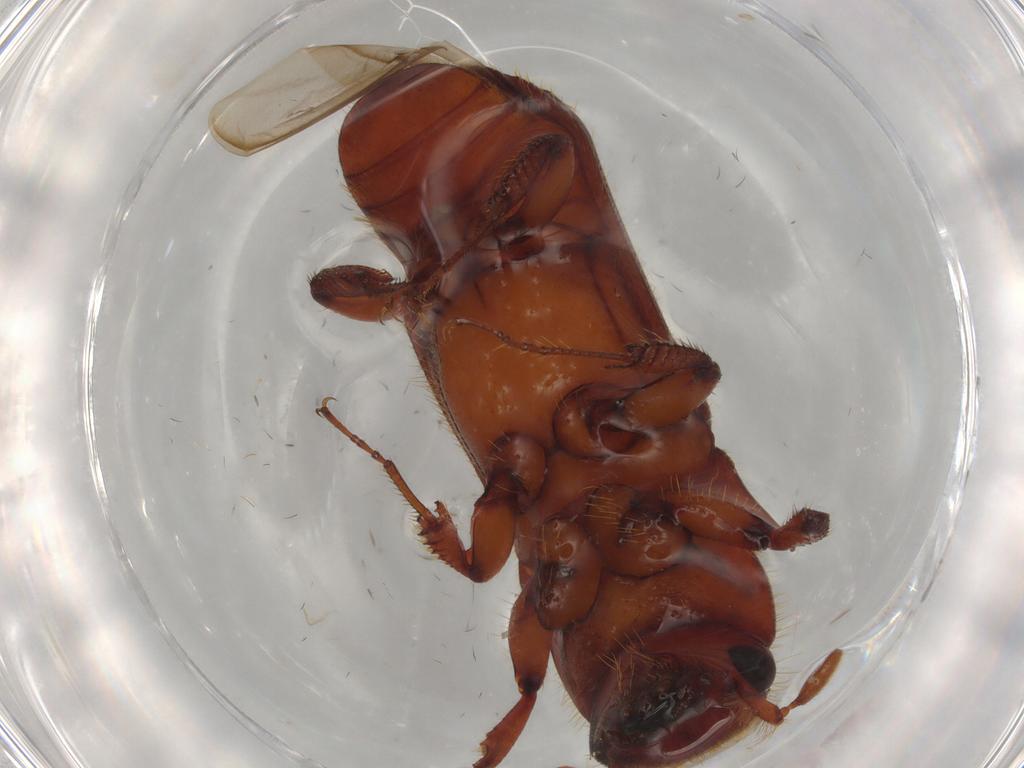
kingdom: Animalia
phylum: Arthropoda
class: Insecta
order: Coleoptera
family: Curculionidae
